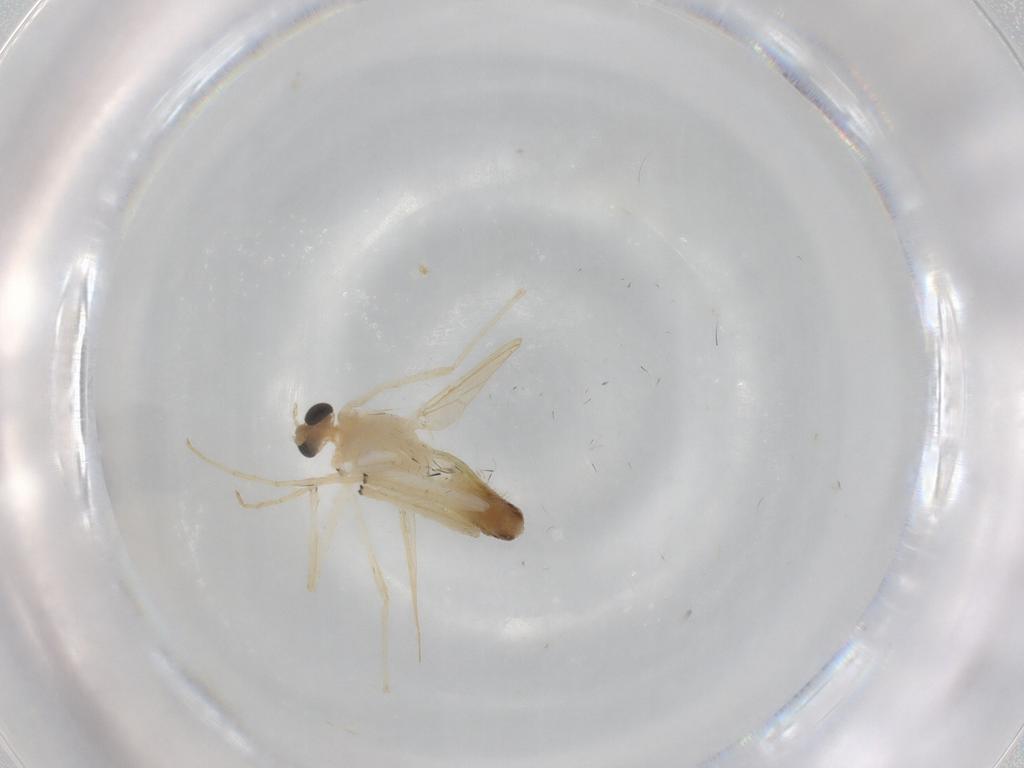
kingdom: Animalia
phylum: Arthropoda
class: Insecta
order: Diptera
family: Chironomidae
